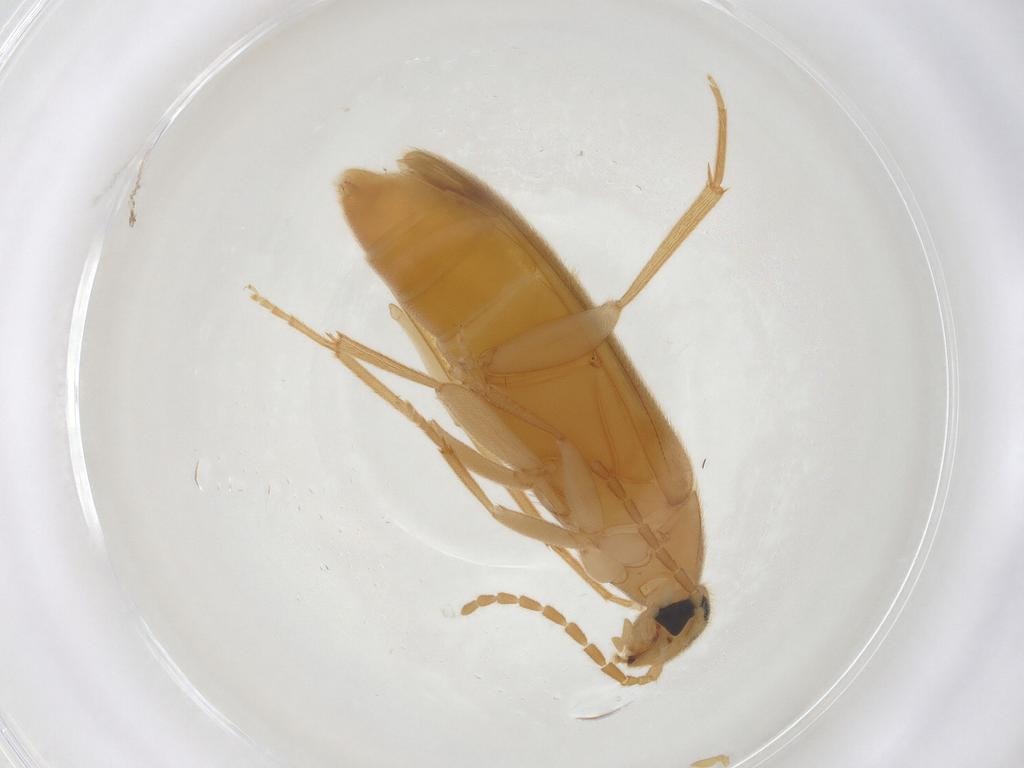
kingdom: Animalia
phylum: Arthropoda
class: Insecta
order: Coleoptera
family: Scraptiidae
